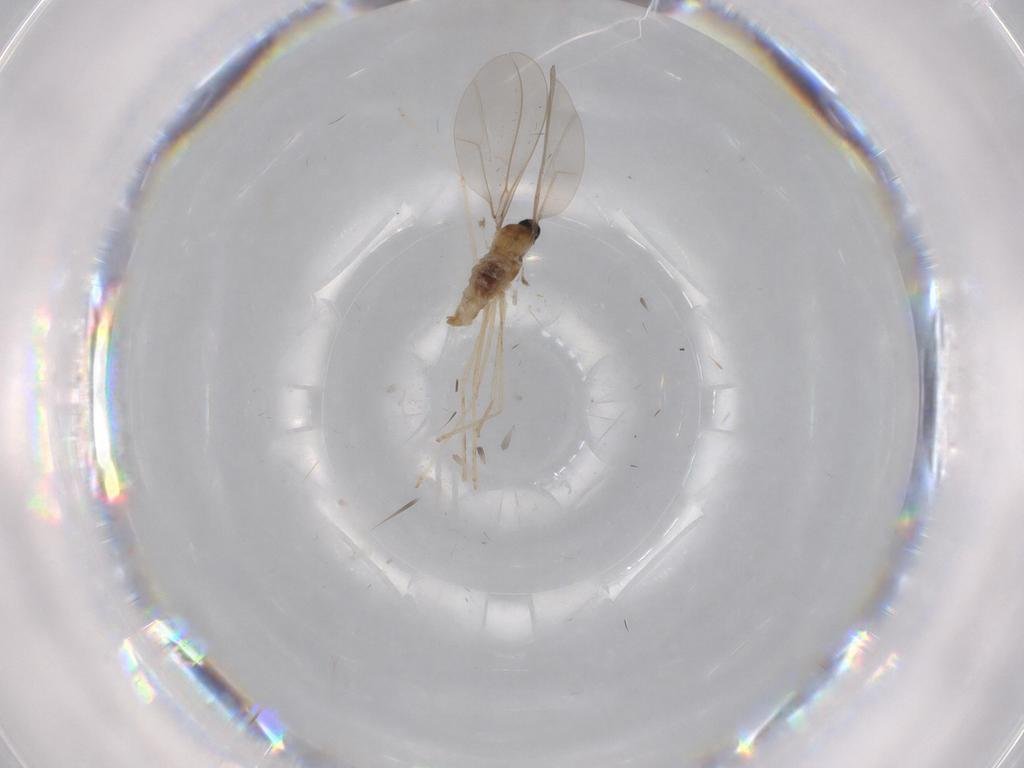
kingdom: Animalia
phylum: Arthropoda
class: Insecta
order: Diptera
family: Cecidomyiidae
